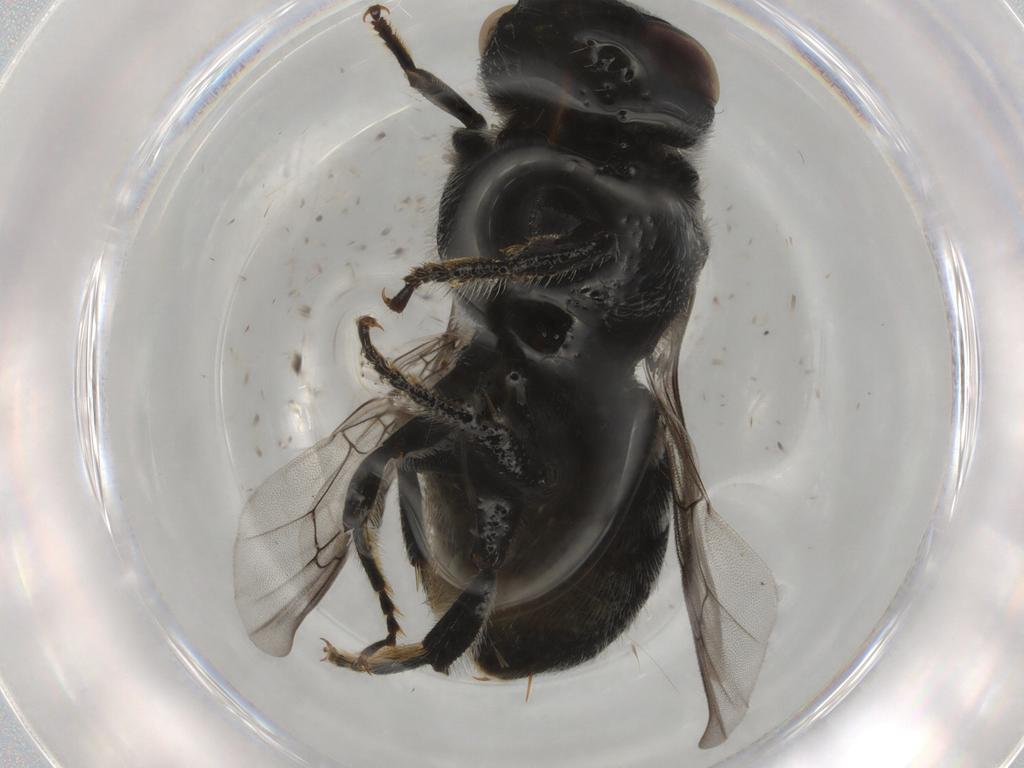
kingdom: Animalia
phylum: Arthropoda
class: Insecta
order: Hymenoptera
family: Megachilidae
